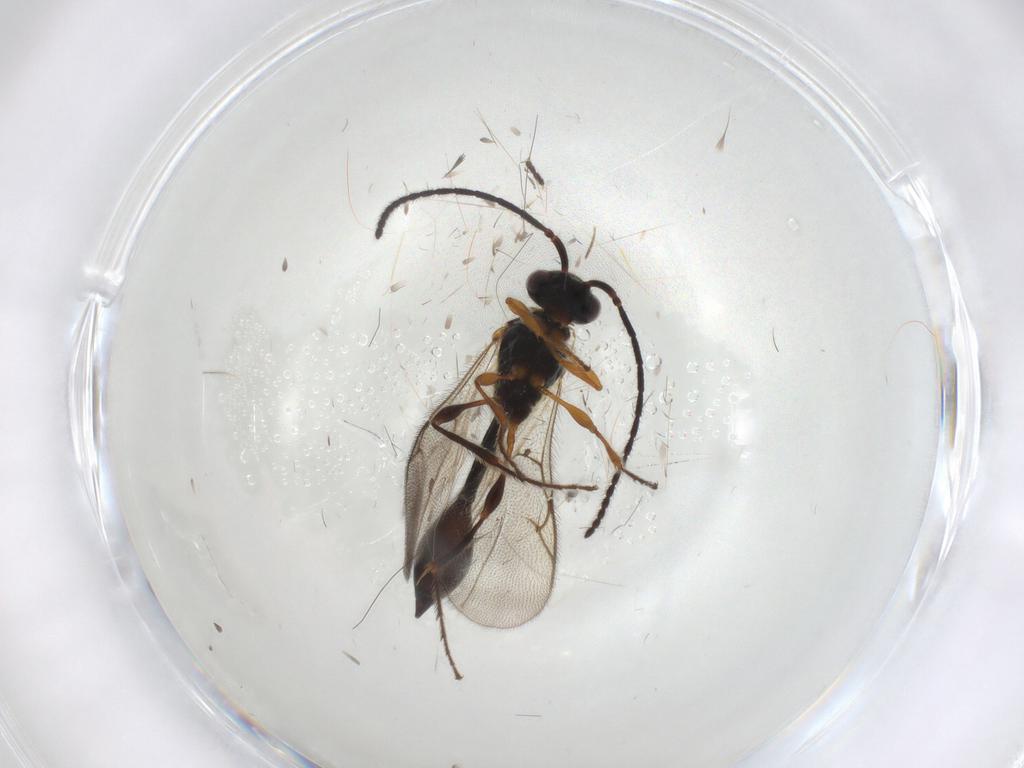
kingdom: Animalia
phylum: Arthropoda
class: Insecta
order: Hymenoptera
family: Diapriidae
